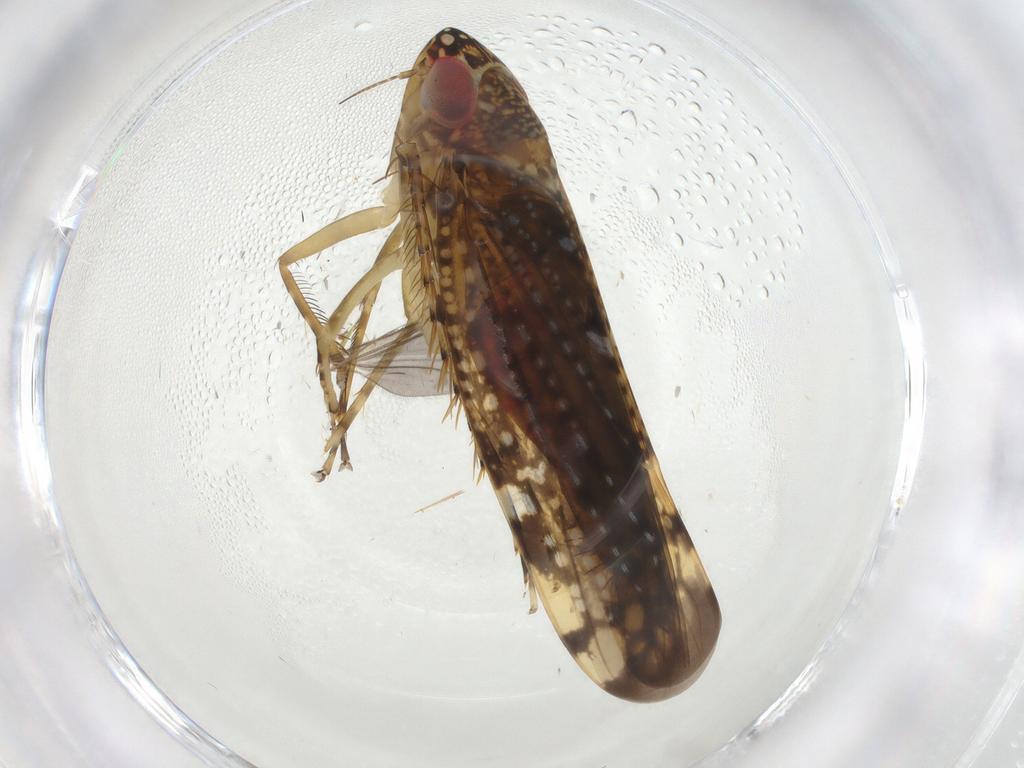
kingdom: Animalia
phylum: Arthropoda
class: Insecta
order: Hemiptera
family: Cicadellidae
